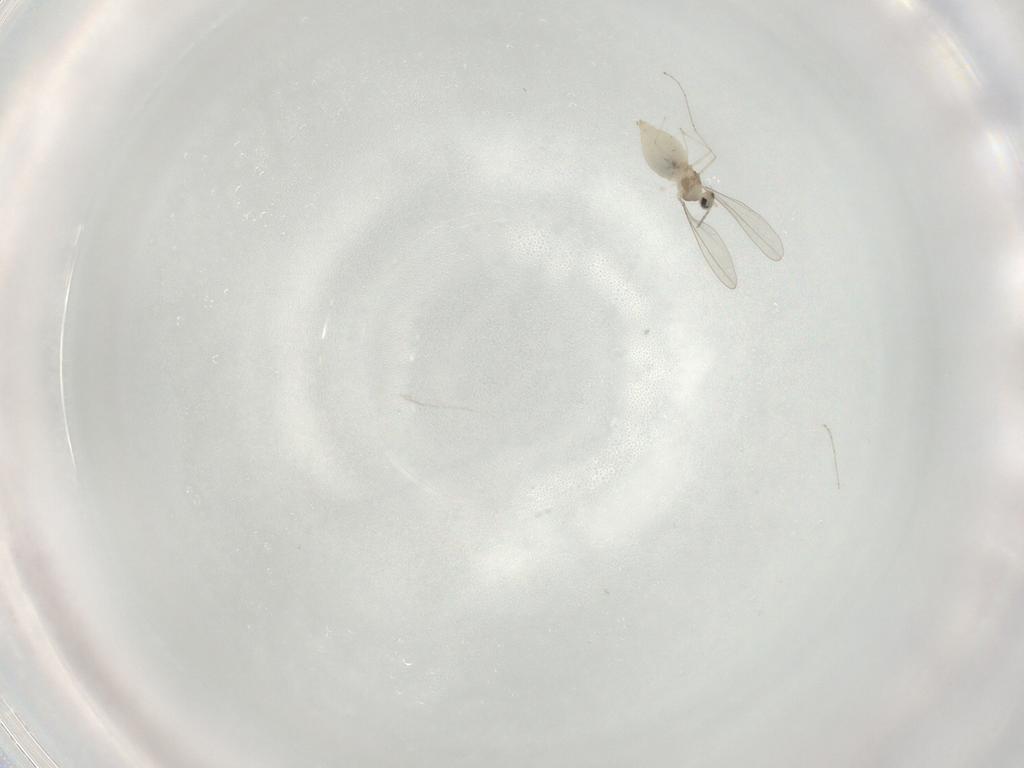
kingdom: Animalia
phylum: Arthropoda
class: Insecta
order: Diptera
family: Cecidomyiidae
